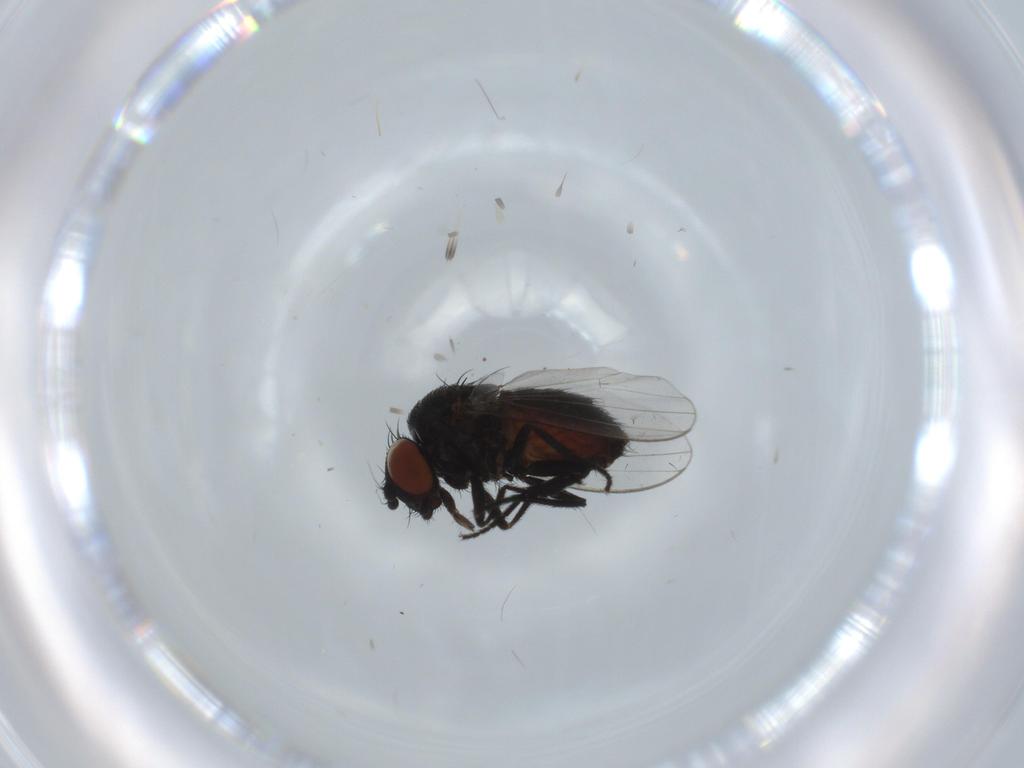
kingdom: Animalia
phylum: Arthropoda
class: Insecta
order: Diptera
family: Milichiidae
